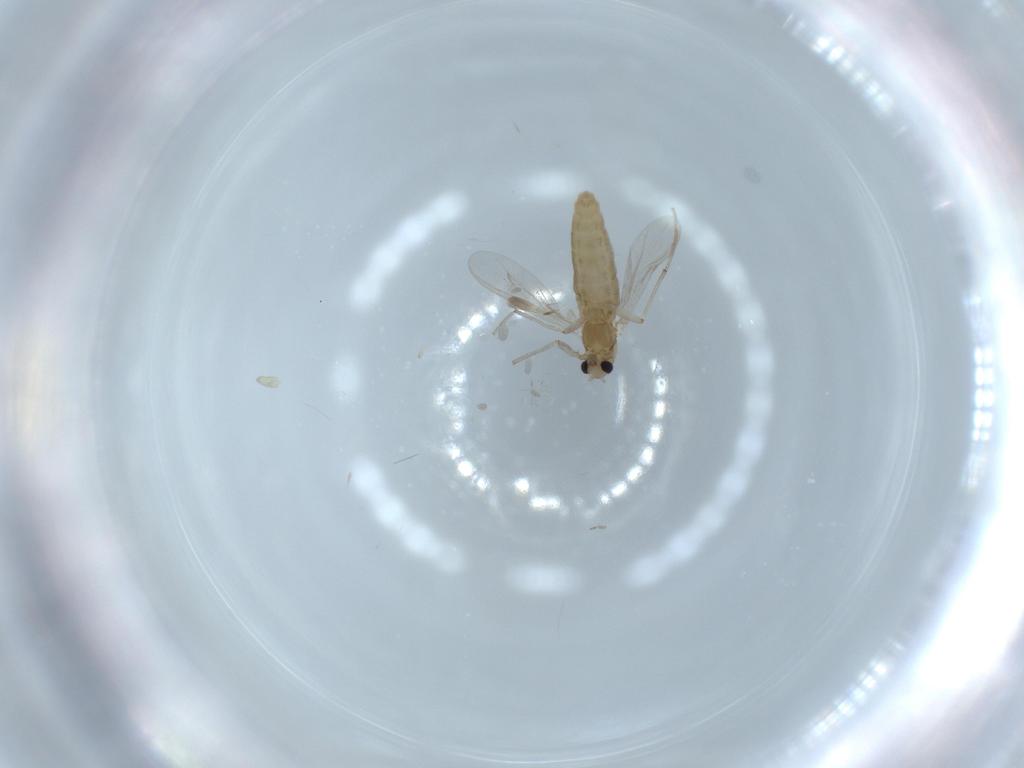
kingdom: Animalia
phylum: Arthropoda
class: Insecta
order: Diptera
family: Chironomidae
